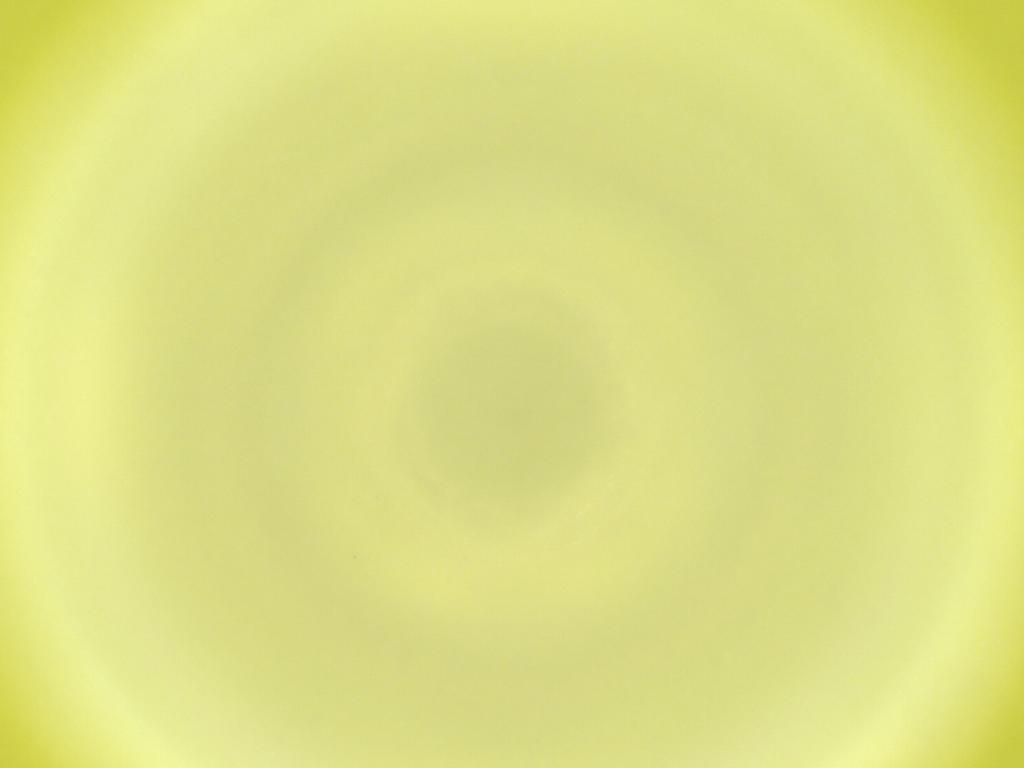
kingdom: Animalia
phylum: Arthropoda
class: Insecta
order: Diptera
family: Cecidomyiidae
